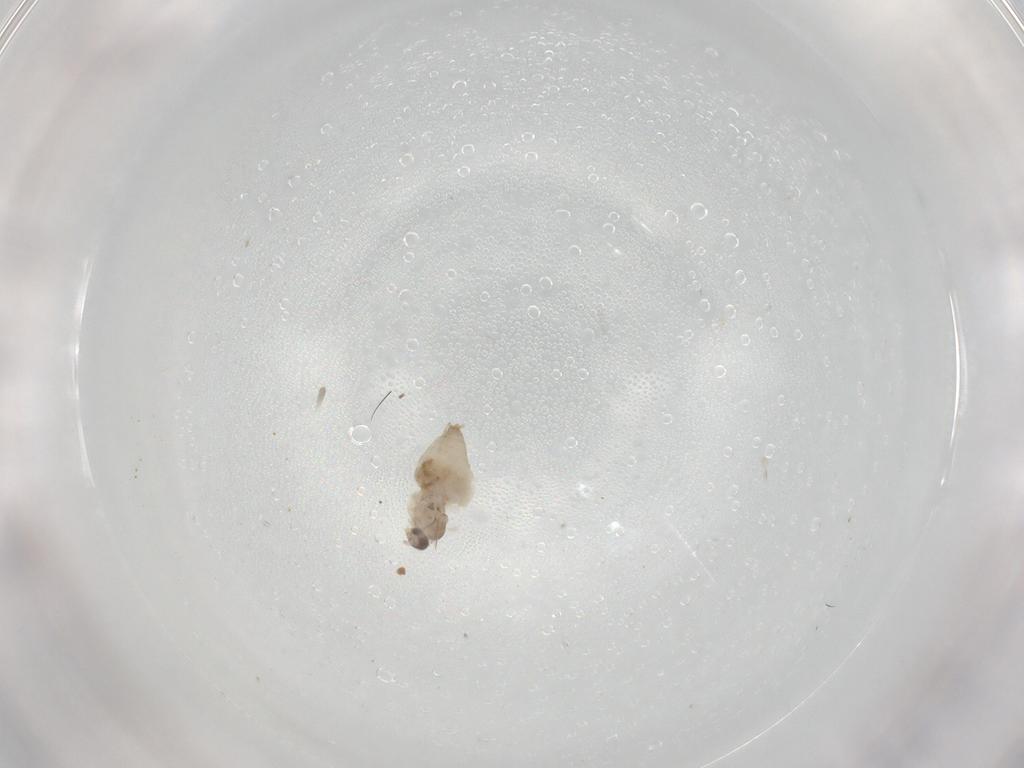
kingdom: Animalia
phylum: Arthropoda
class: Insecta
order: Diptera
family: Cecidomyiidae
